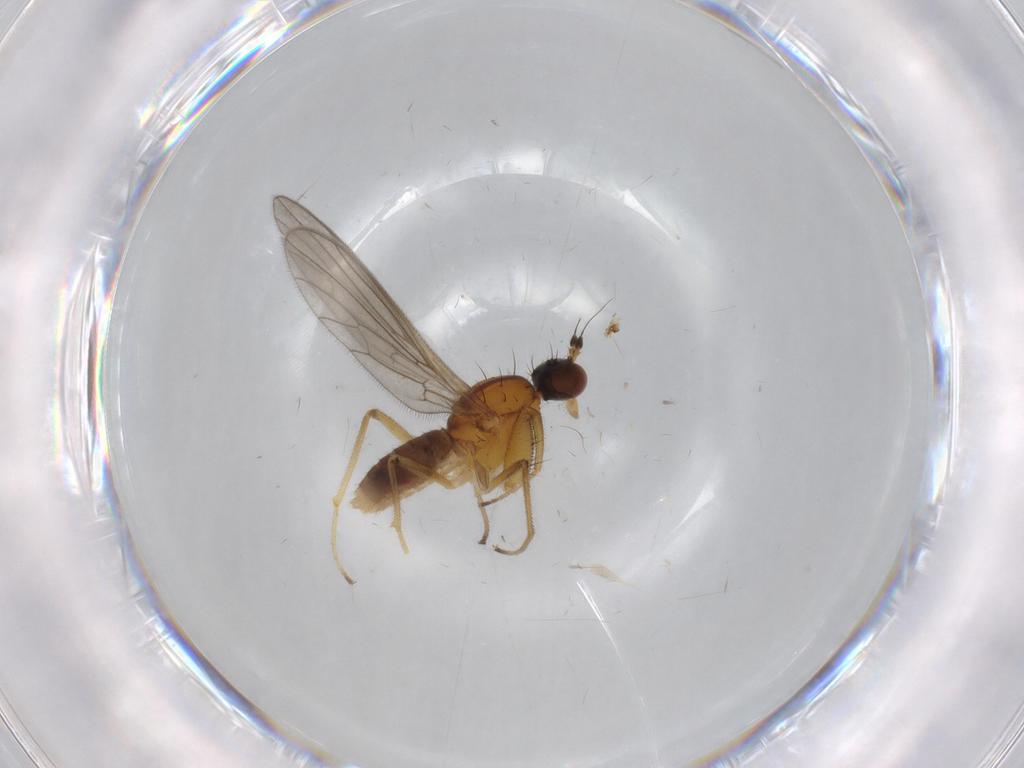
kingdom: Animalia
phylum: Arthropoda
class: Insecta
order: Diptera
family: Empididae
